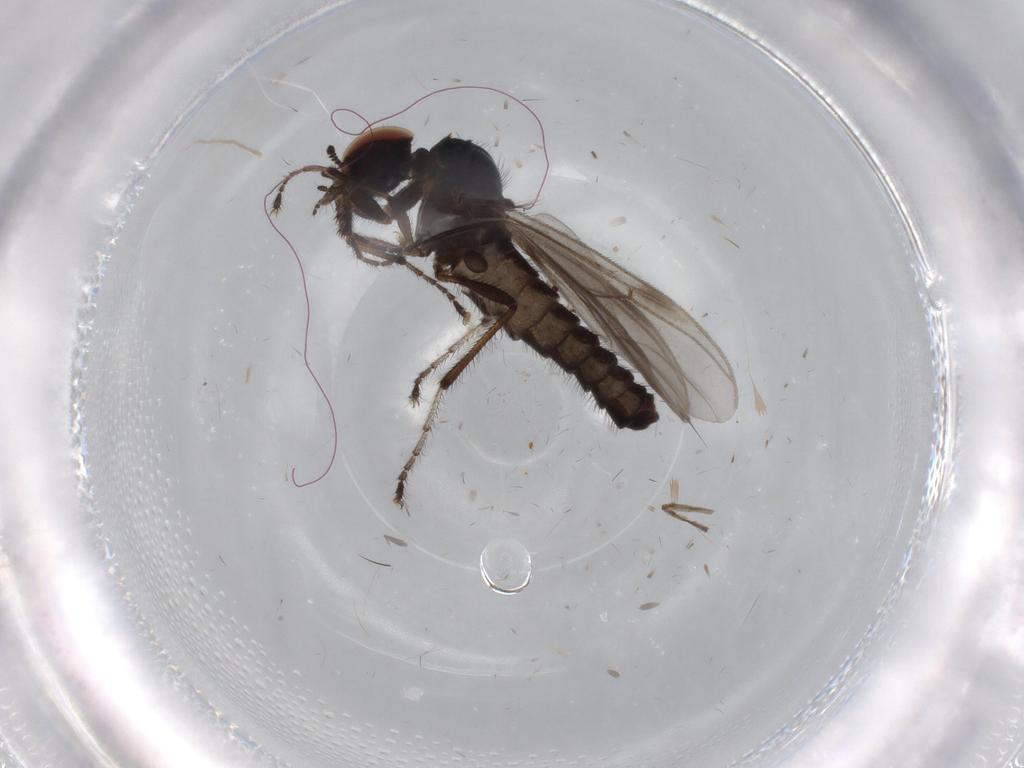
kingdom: Animalia
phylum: Arthropoda
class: Insecta
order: Diptera
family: Bibionidae
